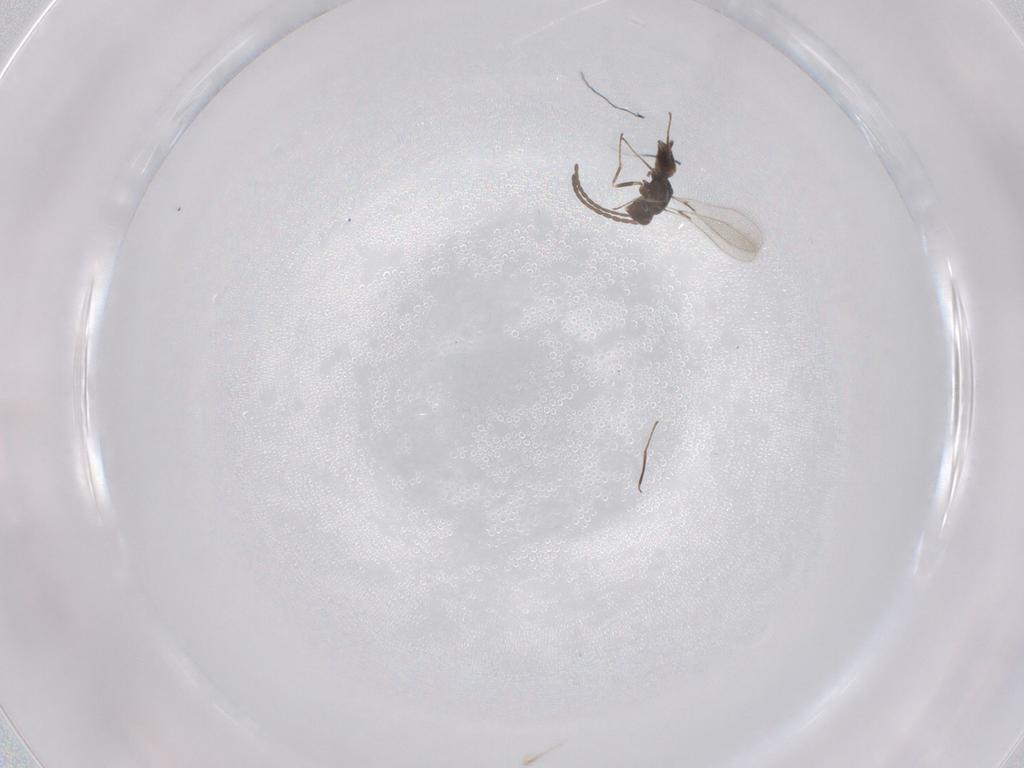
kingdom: Animalia
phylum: Arthropoda
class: Insecta
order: Hymenoptera
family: Mymaridae
